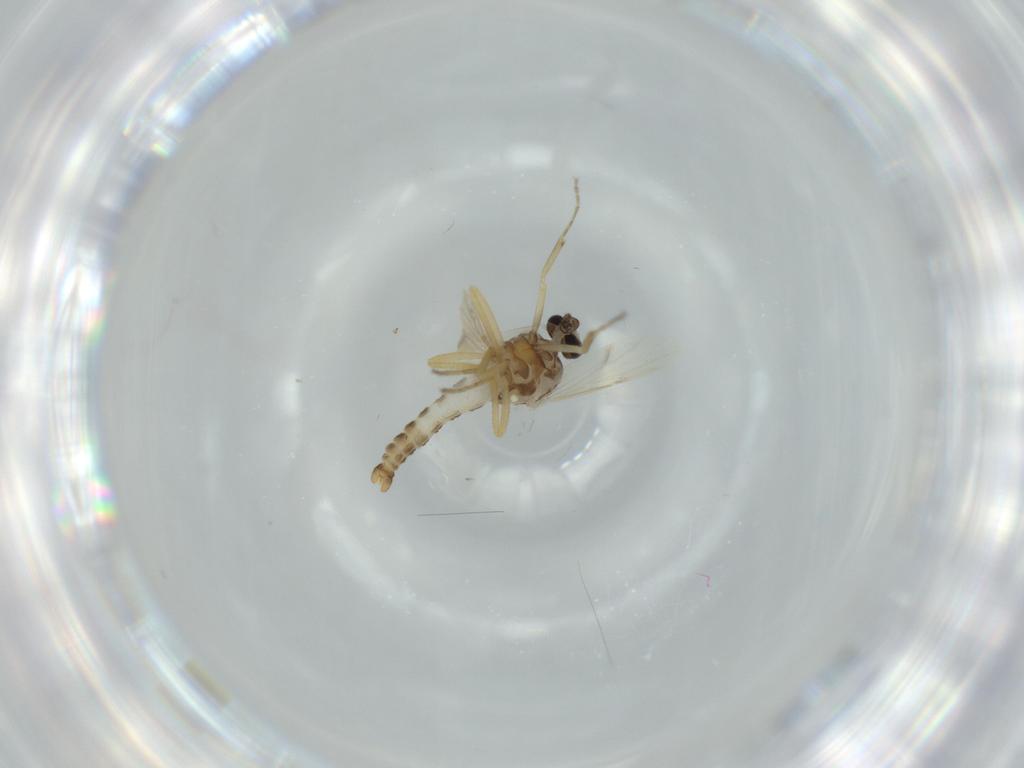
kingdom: Animalia
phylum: Arthropoda
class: Insecta
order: Diptera
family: Ceratopogonidae
